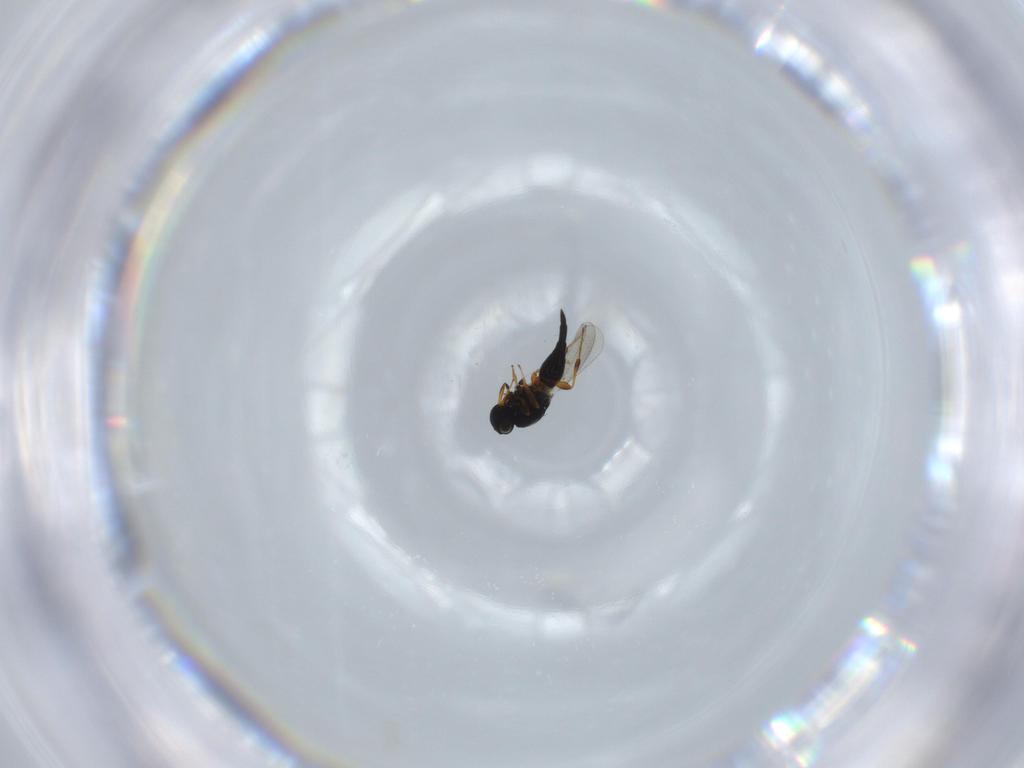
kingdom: Animalia
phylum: Arthropoda
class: Insecta
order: Hymenoptera
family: Platygastridae
